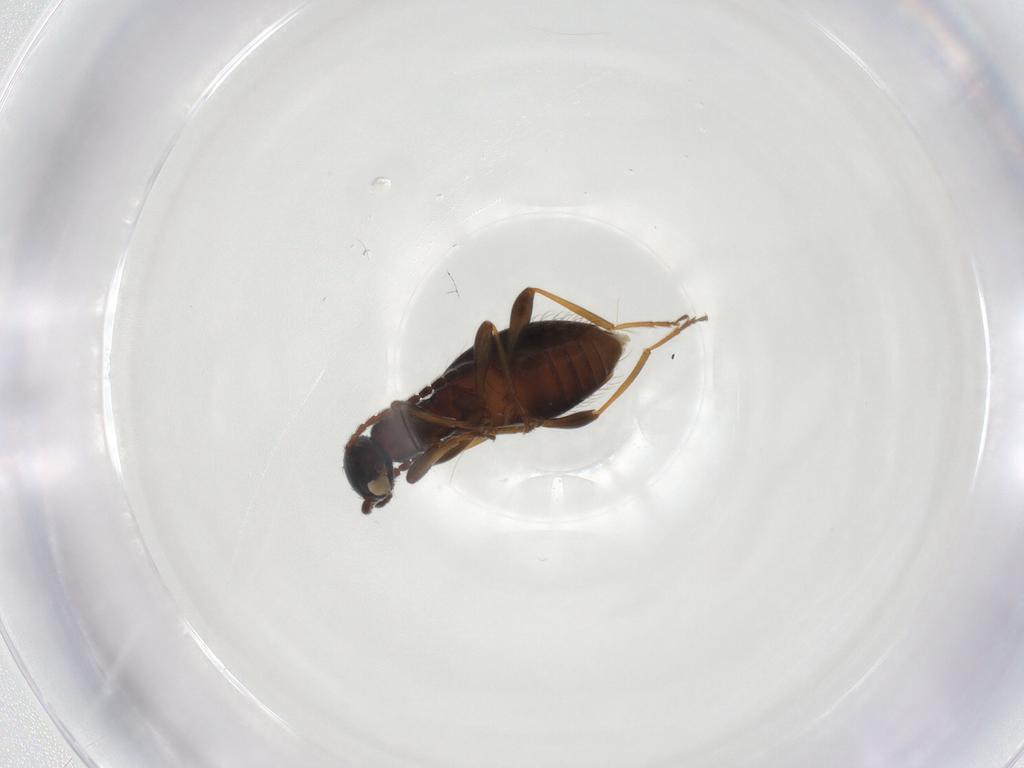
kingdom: Animalia
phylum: Arthropoda
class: Insecta
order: Coleoptera
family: Anthicidae
